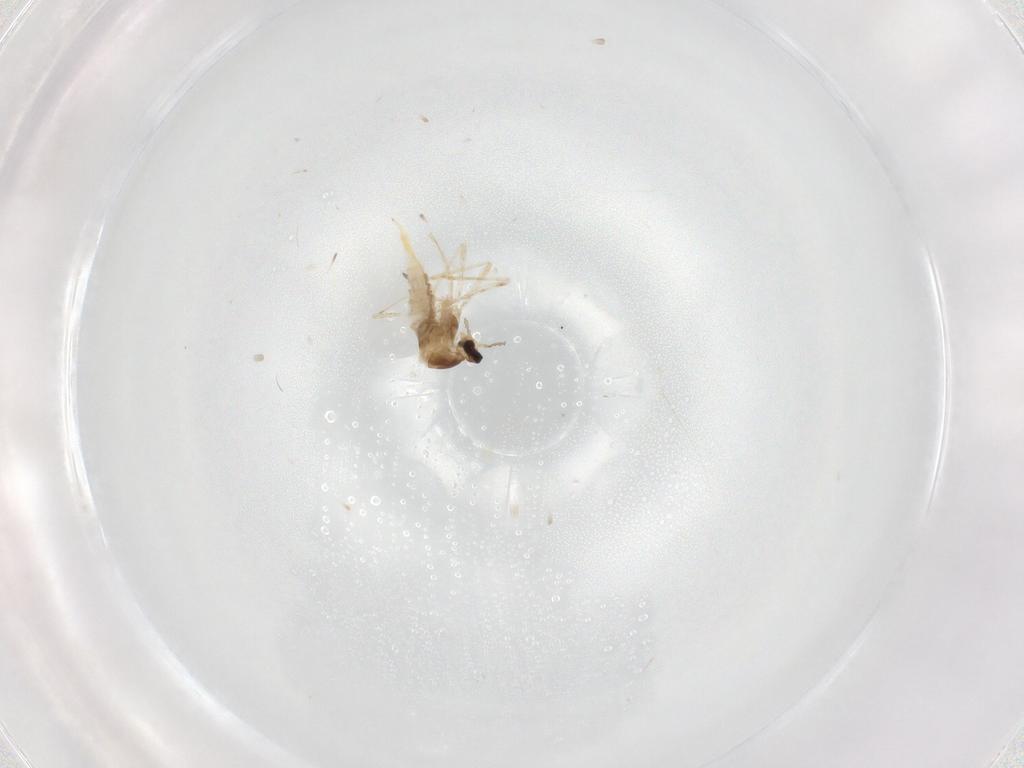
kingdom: Animalia
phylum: Arthropoda
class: Insecta
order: Diptera
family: Cecidomyiidae
